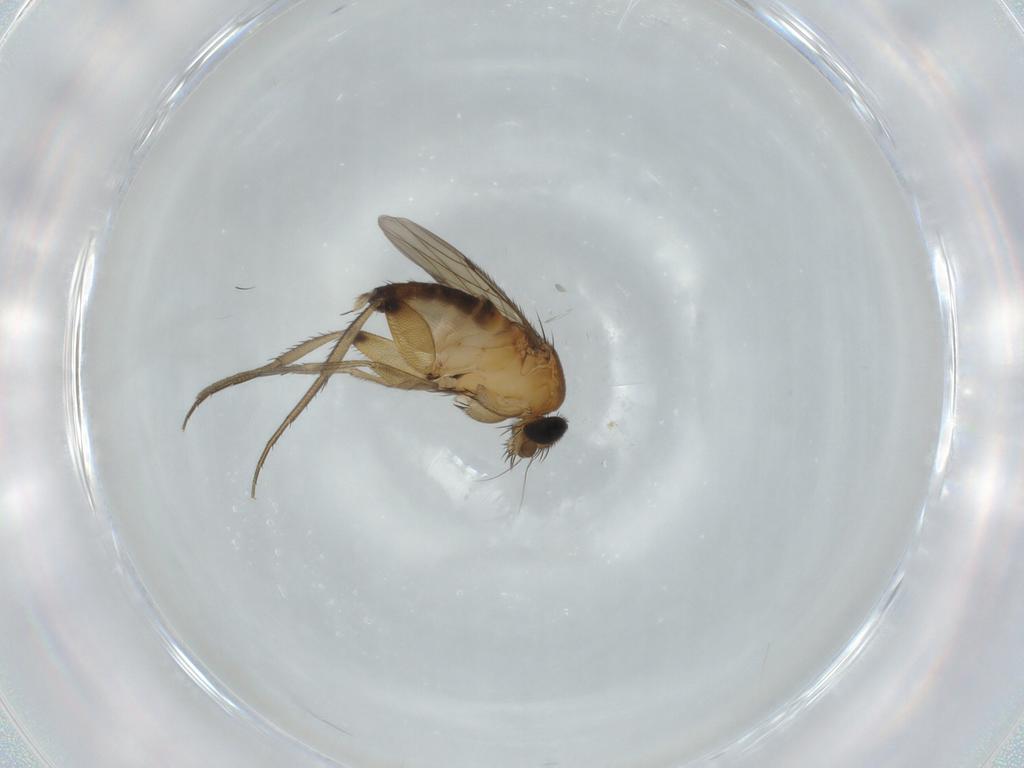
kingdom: Animalia
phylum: Arthropoda
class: Insecta
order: Diptera
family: Phoridae
